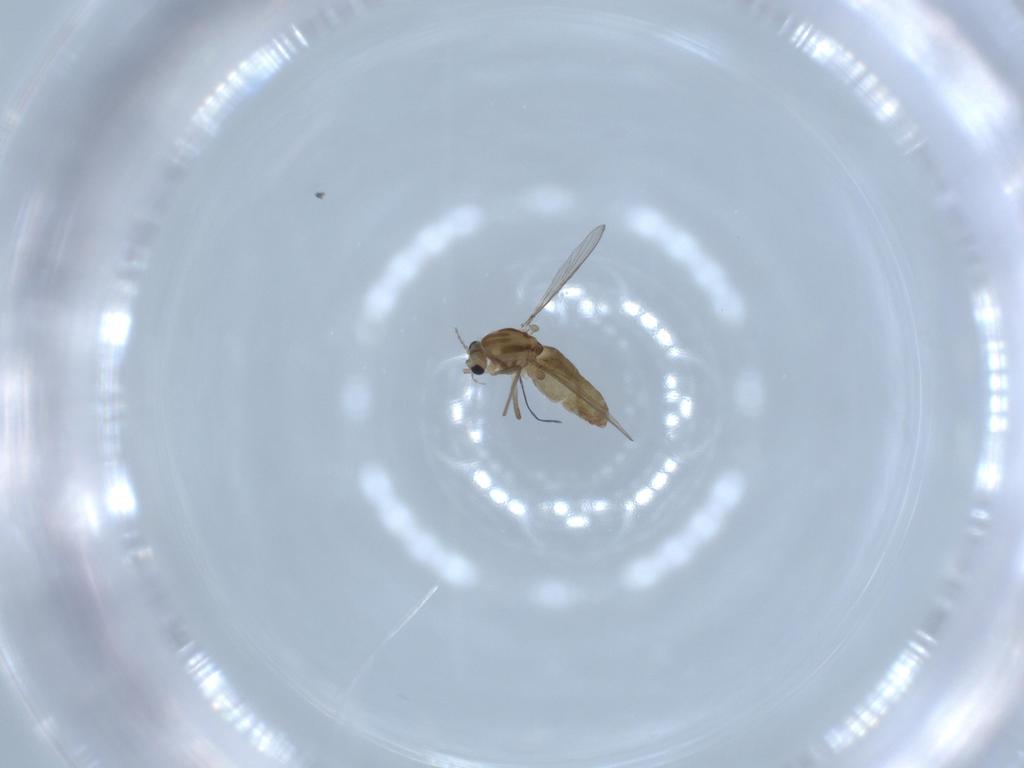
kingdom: Animalia
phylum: Arthropoda
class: Insecta
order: Diptera
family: Chironomidae
